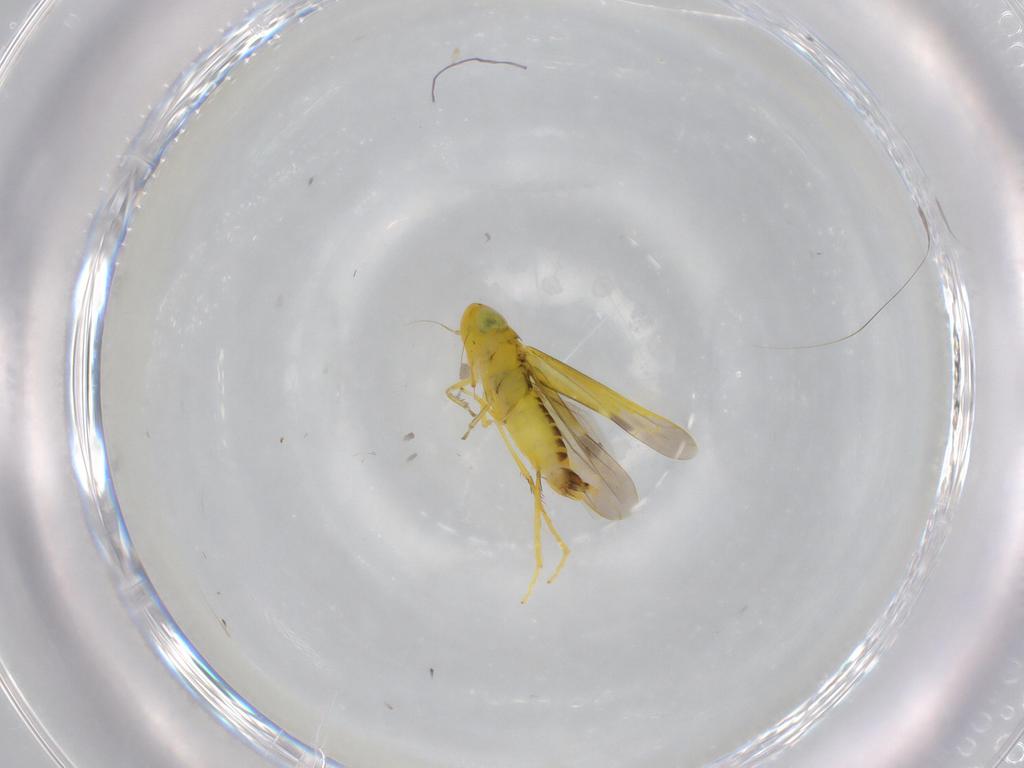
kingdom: Animalia
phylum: Arthropoda
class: Insecta
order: Hemiptera
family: Cicadellidae
